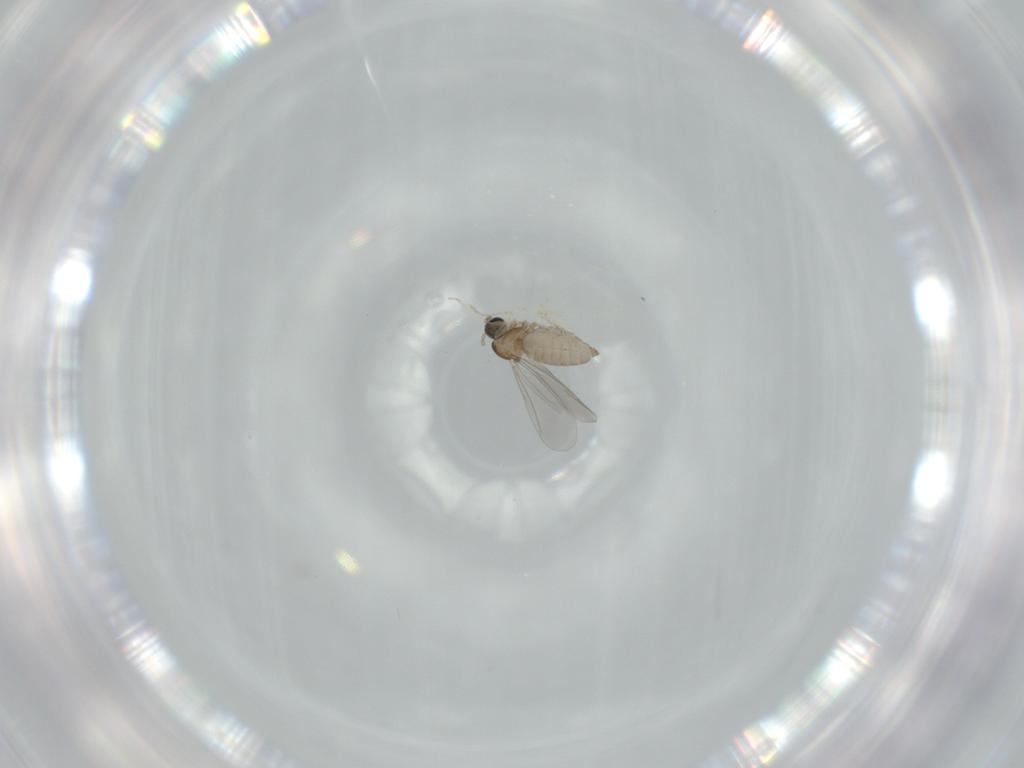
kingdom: Animalia
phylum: Arthropoda
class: Insecta
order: Diptera
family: Cecidomyiidae
